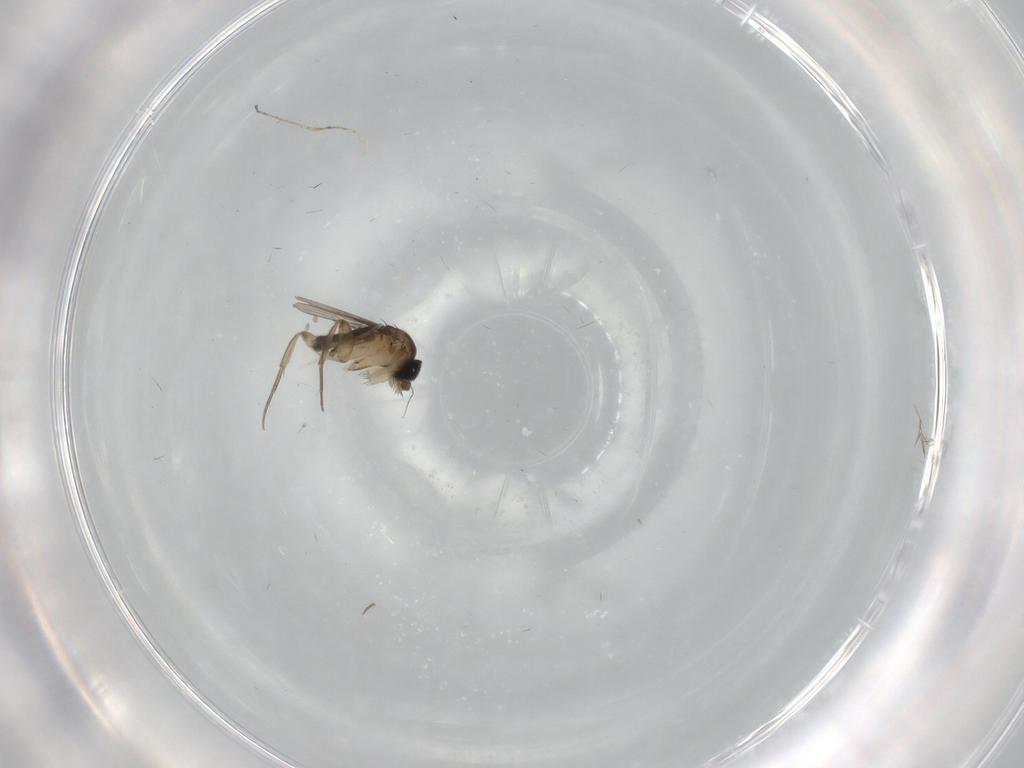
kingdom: Animalia
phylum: Arthropoda
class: Insecta
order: Diptera
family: Phoridae
